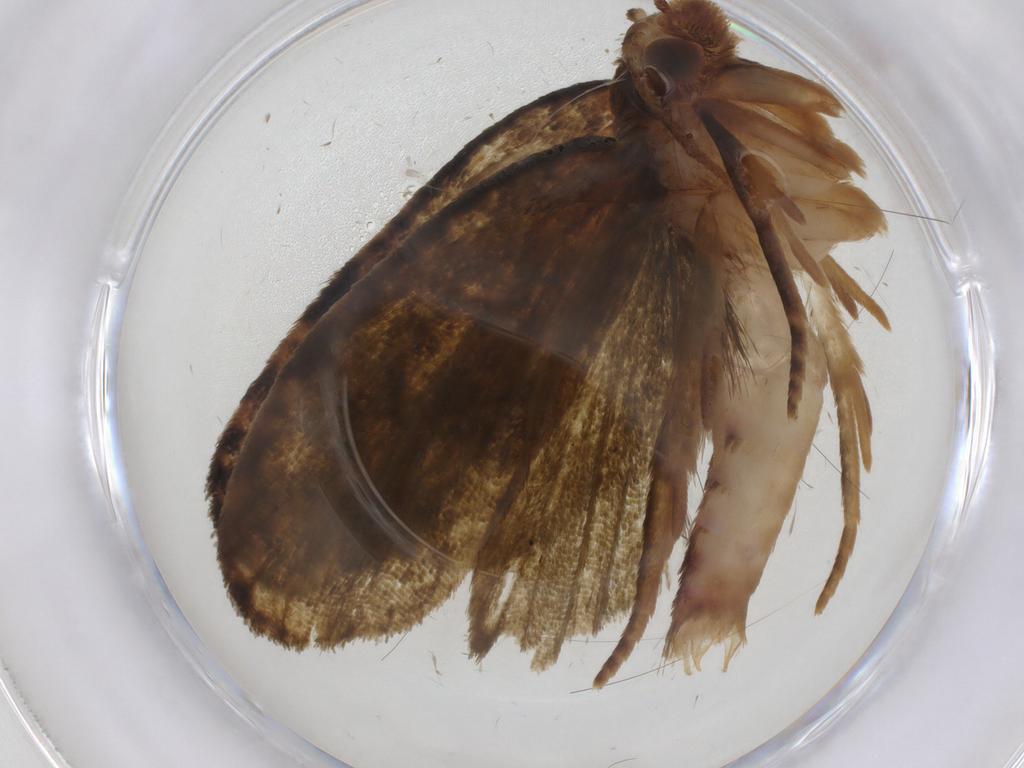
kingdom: Animalia
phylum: Arthropoda
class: Insecta
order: Lepidoptera
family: Geometridae
